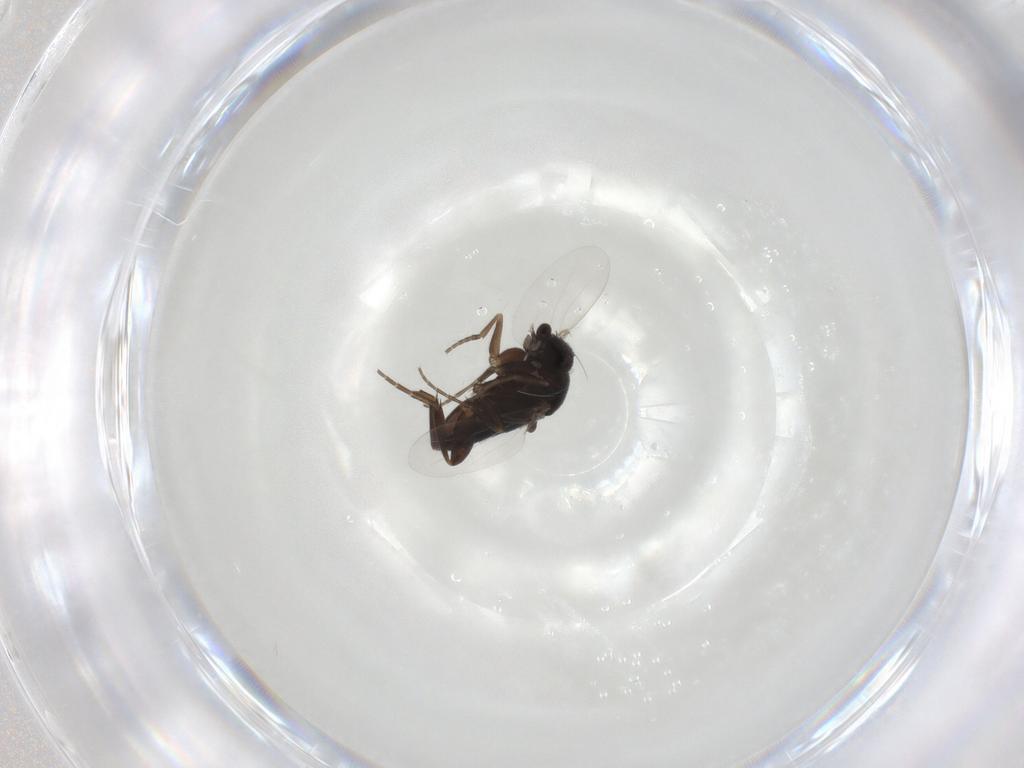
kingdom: Animalia
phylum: Arthropoda
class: Insecta
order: Diptera
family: Phoridae
